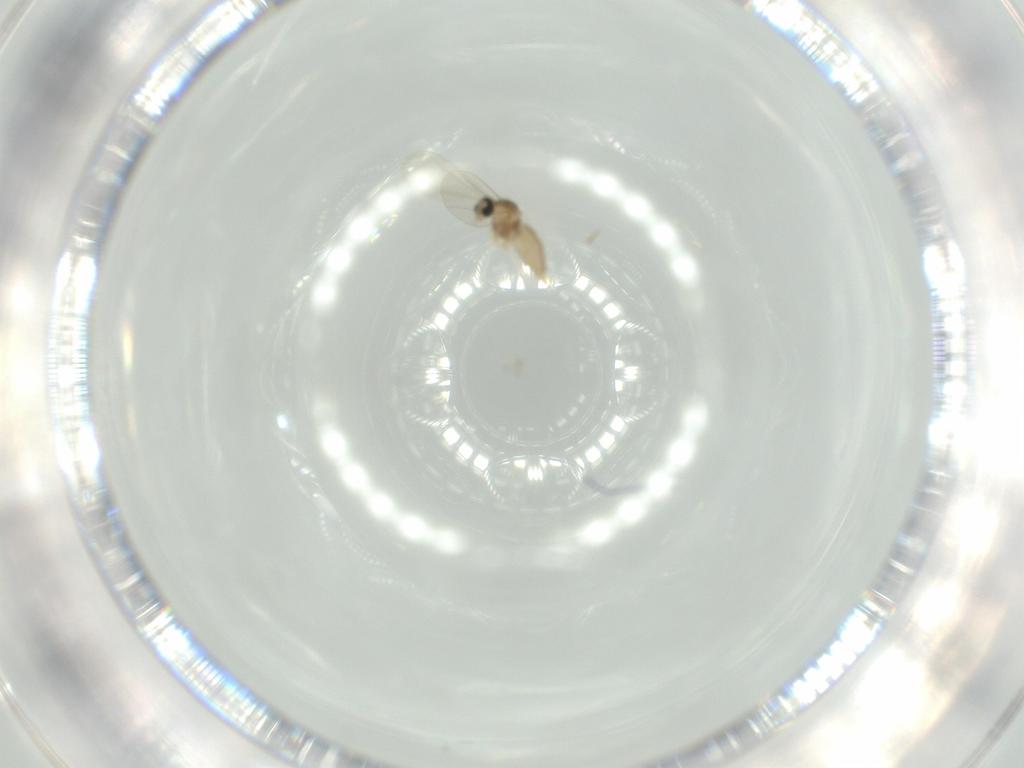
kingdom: Animalia
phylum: Arthropoda
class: Insecta
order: Diptera
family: Cecidomyiidae
